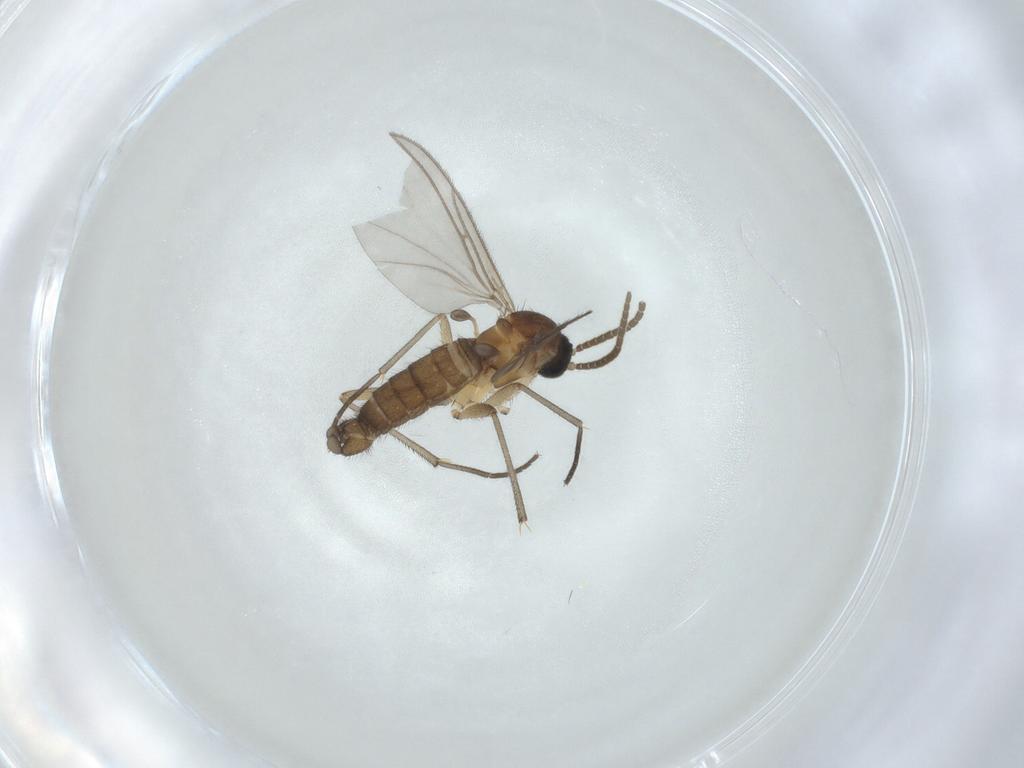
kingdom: Animalia
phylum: Arthropoda
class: Insecta
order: Diptera
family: Sciaridae
